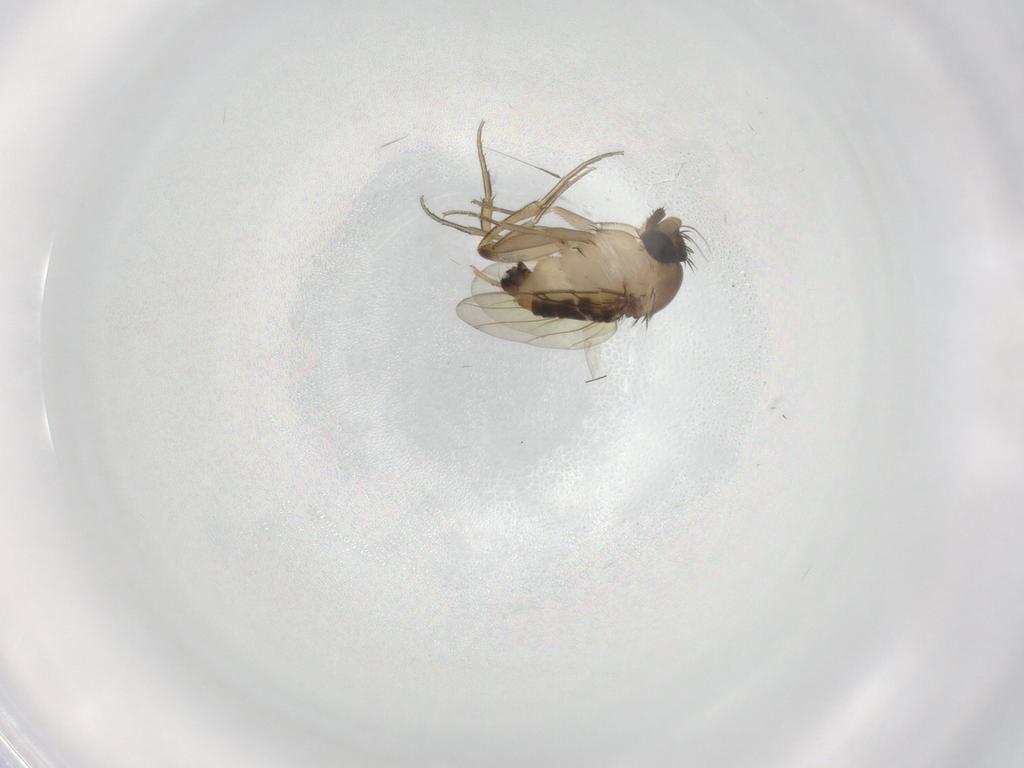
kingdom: Animalia
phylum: Arthropoda
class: Insecta
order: Diptera
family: Phoridae
